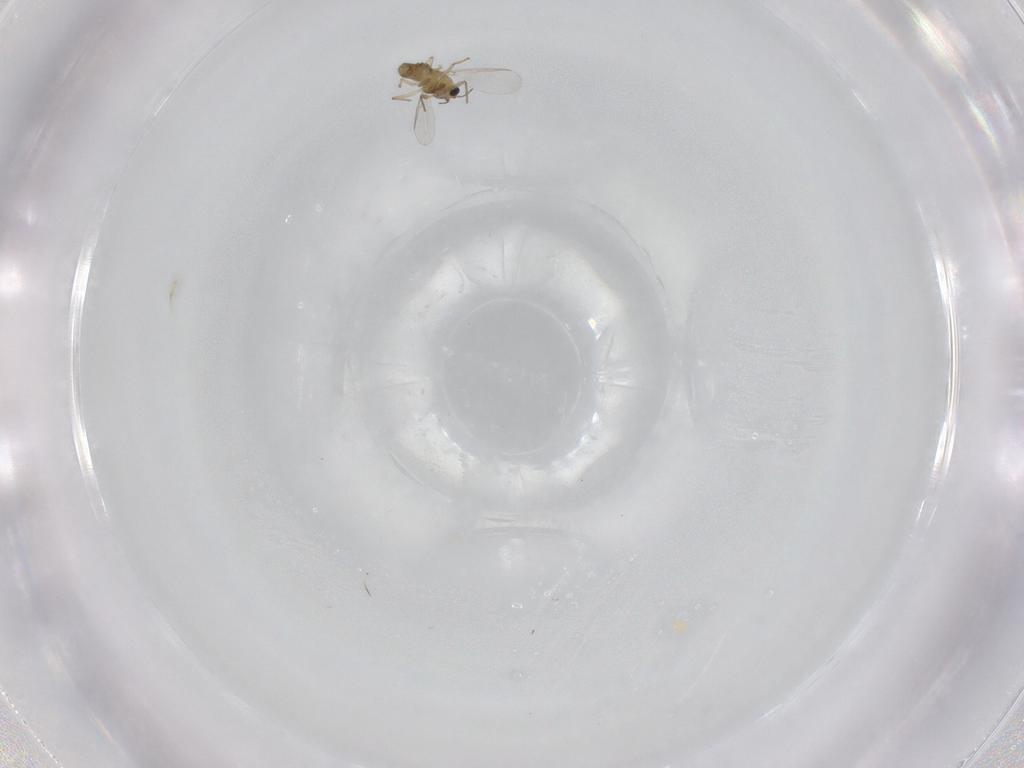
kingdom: Animalia
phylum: Arthropoda
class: Insecta
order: Diptera
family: Chironomidae
